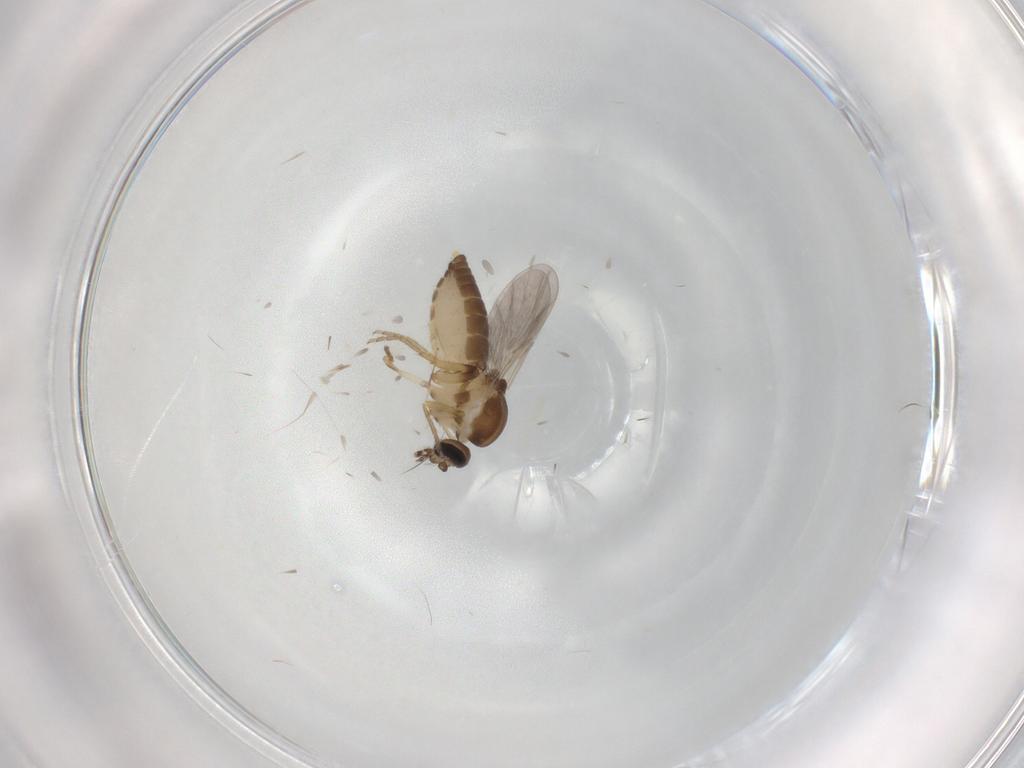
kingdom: Animalia
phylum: Arthropoda
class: Insecta
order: Diptera
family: Ceratopogonidae
